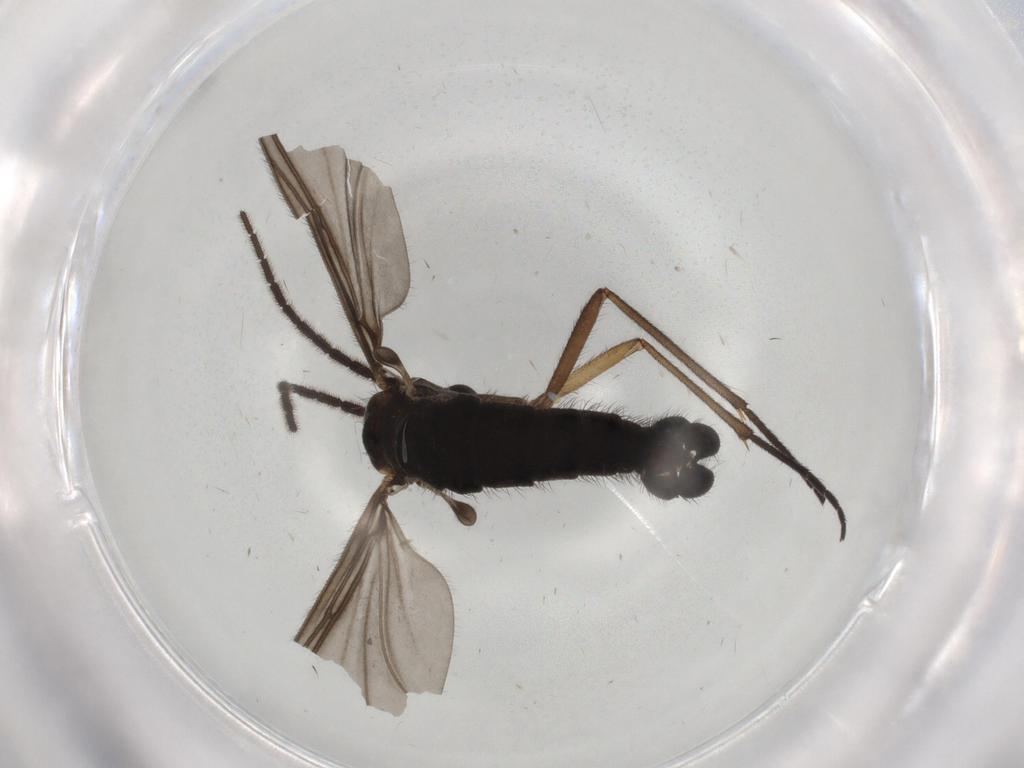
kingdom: Animalia
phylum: Arthropoda
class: Insecta
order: Diptera
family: Sciaridae
